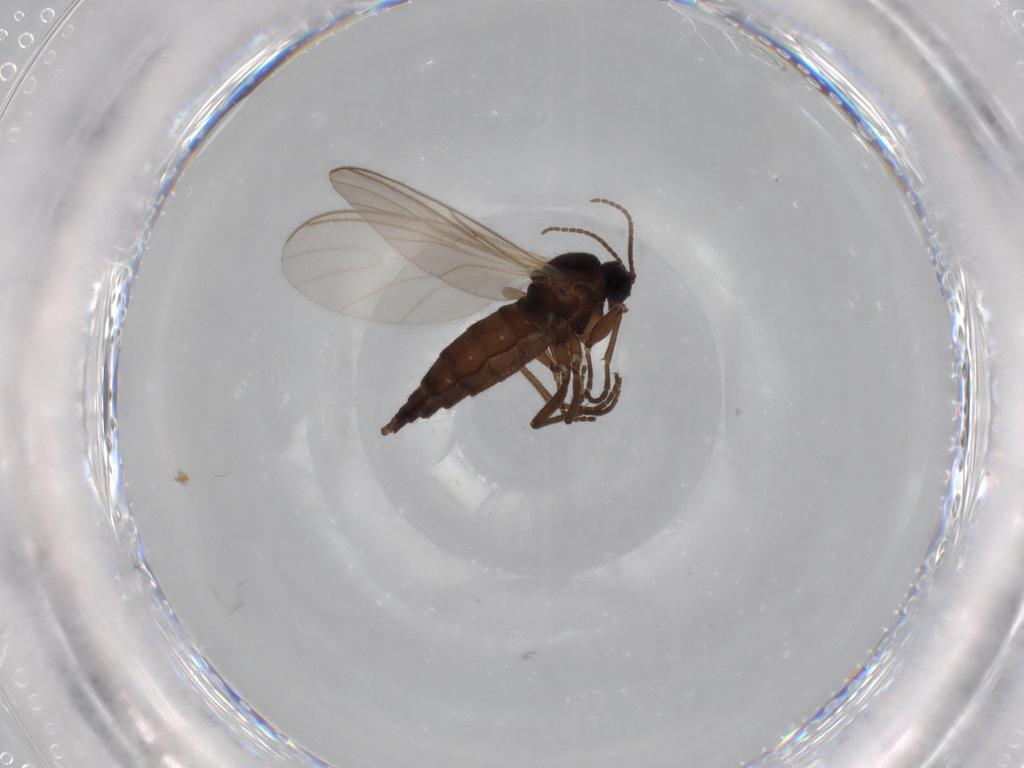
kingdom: Animalia
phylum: Arthropoda
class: Insecta
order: Diptera
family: Sciaridae
